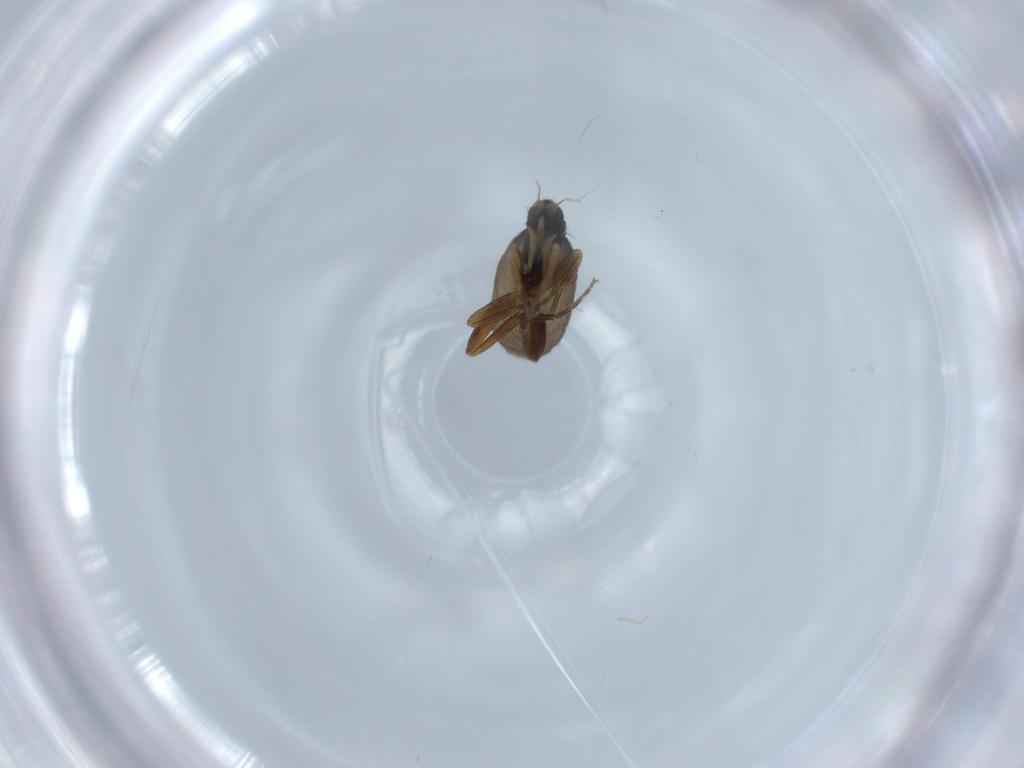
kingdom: Animalia
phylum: Arthropoda
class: Insecta
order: Diptera
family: Phoridae
